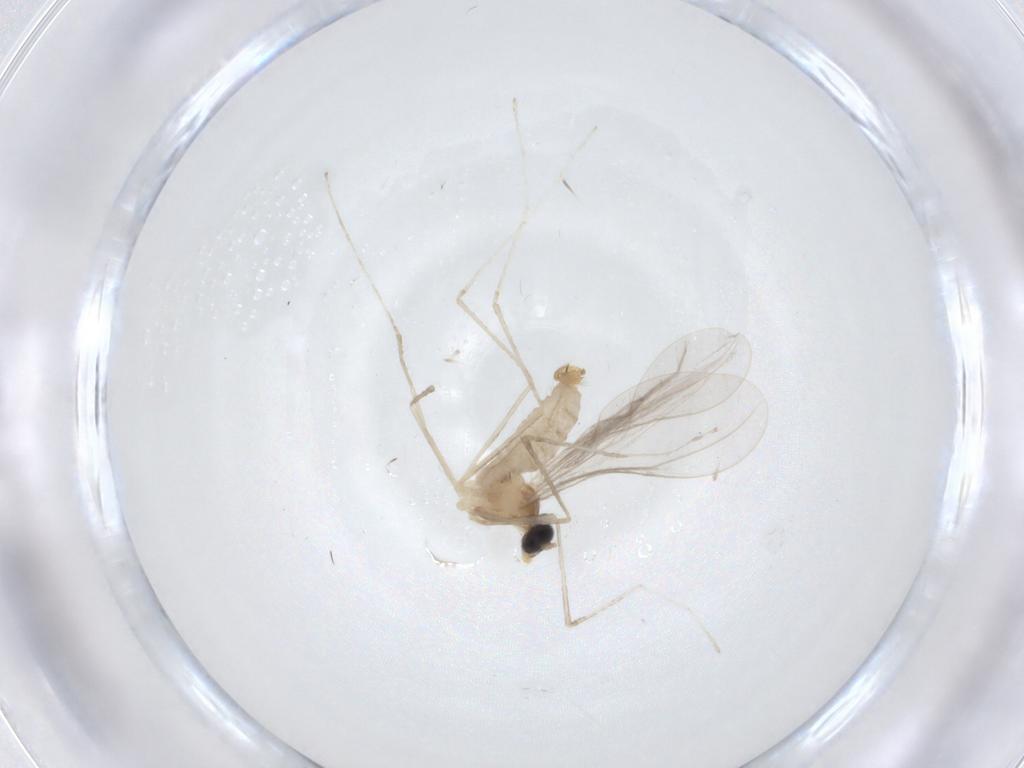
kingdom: Animalia
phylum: Arthropoda
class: Insecta
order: Diptera
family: Cecidomyiidae
